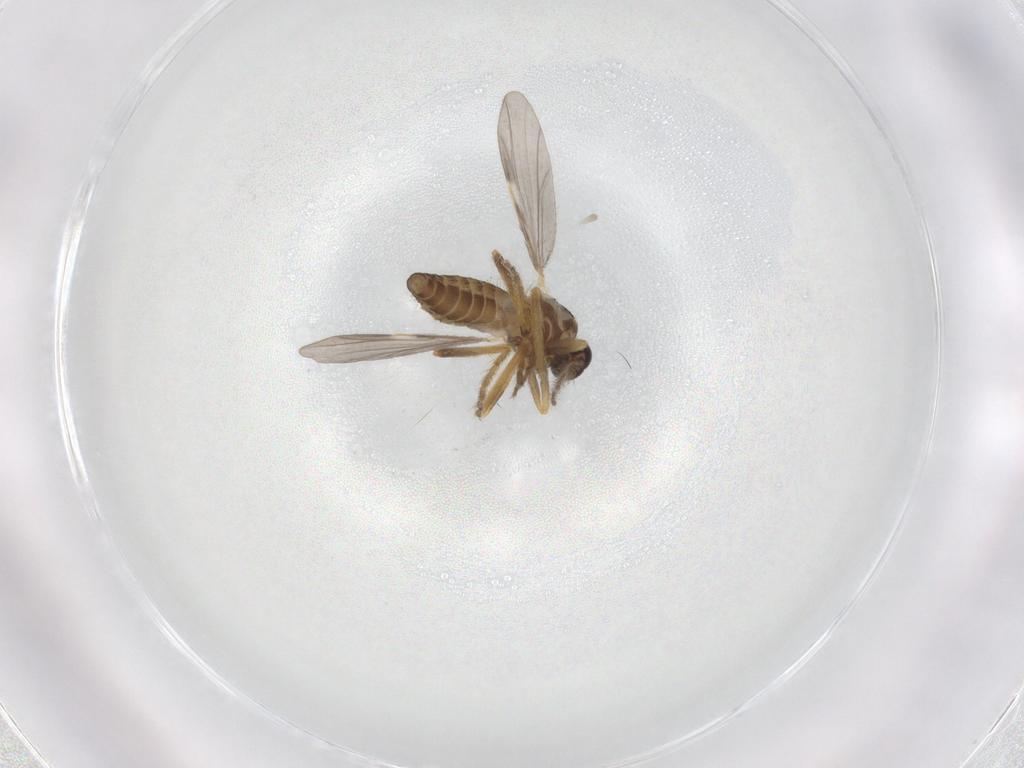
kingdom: Animalia
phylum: Arthropoda
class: Insecta
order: Diptera
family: Ceratopogonidae
